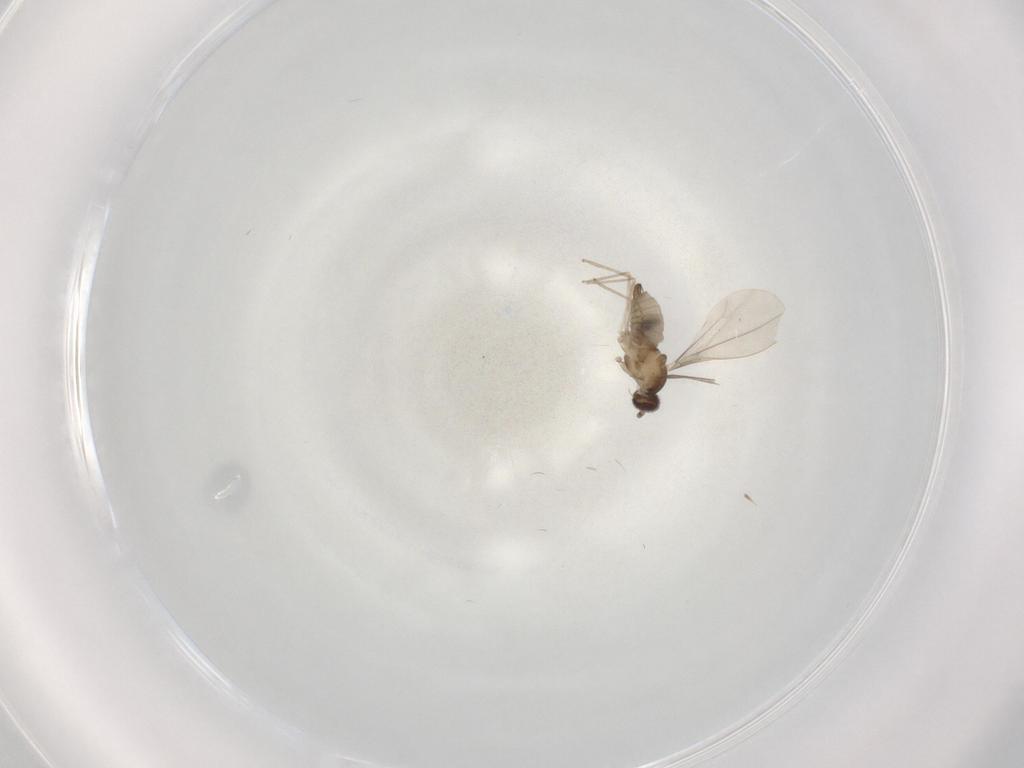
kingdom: Animalia
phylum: Arthropoda
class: Insecta
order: Diptera
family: Cecidomyiidae
